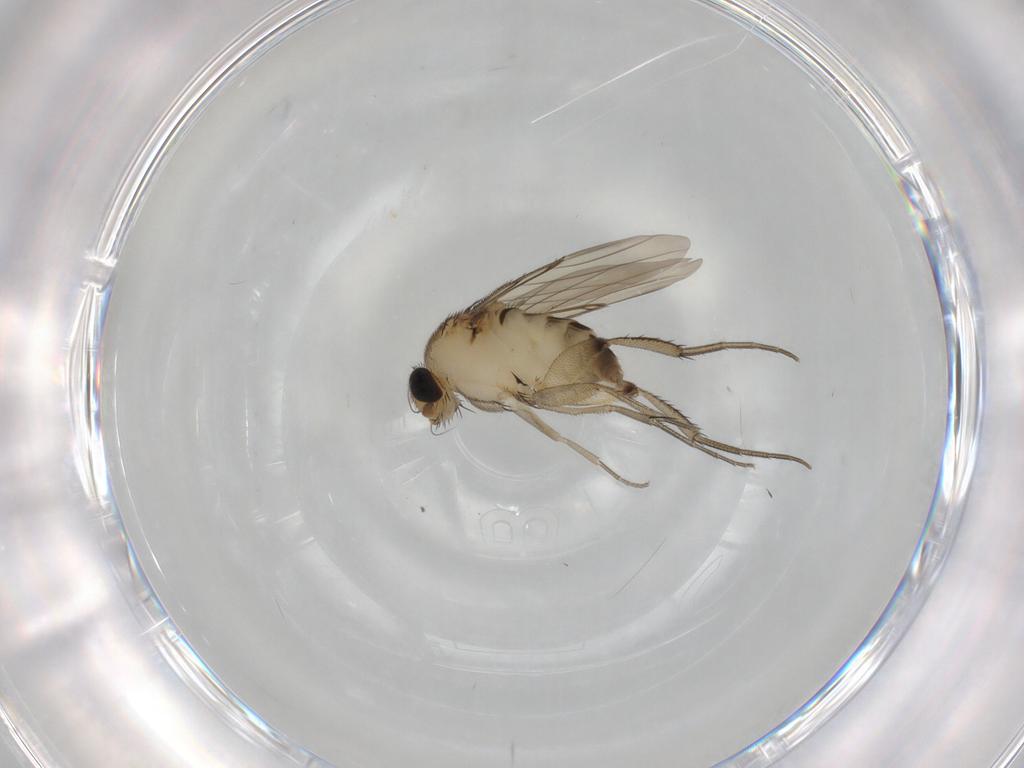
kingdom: Animalia
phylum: Arthropoda
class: Insecta
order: Diptera
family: Phoridae
